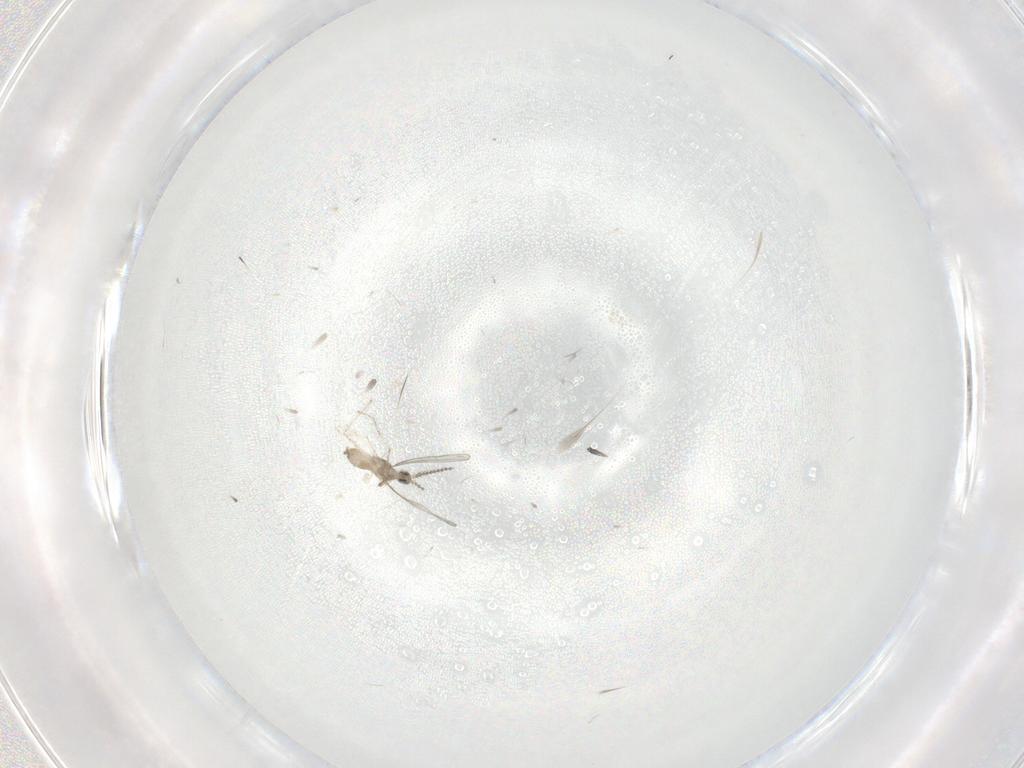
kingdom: Animalia
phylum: Arthropoda
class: Insecta
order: Diptera
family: Cecidomyiidae
